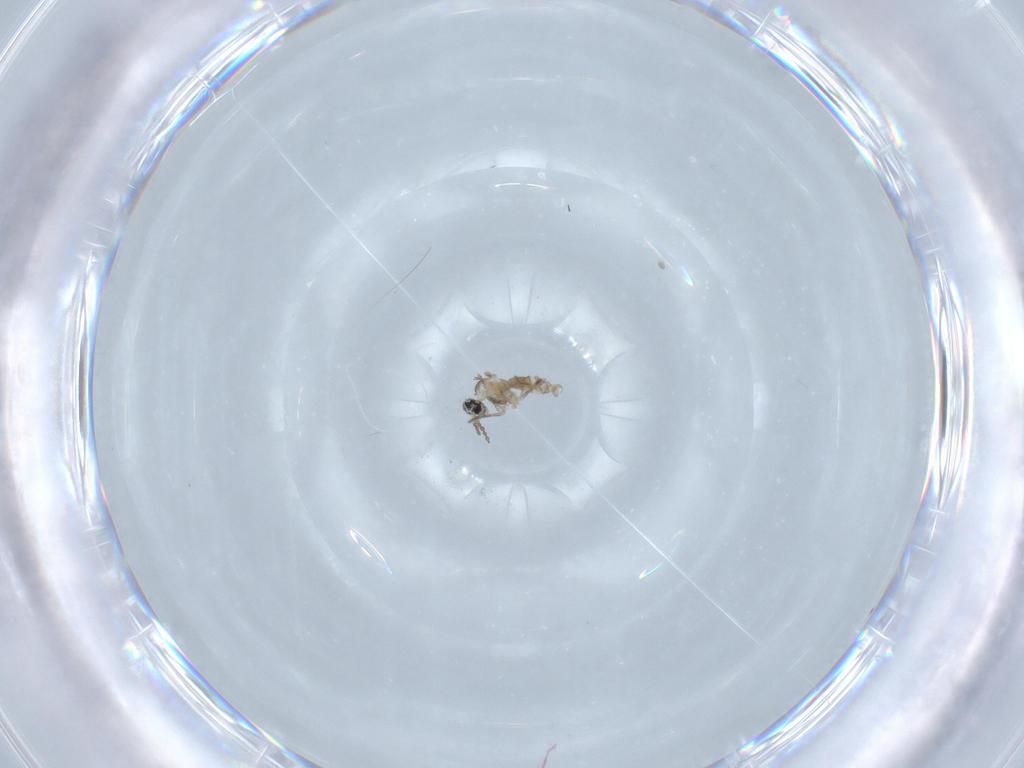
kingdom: Animalia
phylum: Arthropoda
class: Insecta
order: Diptera
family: Cecidomyiidae
